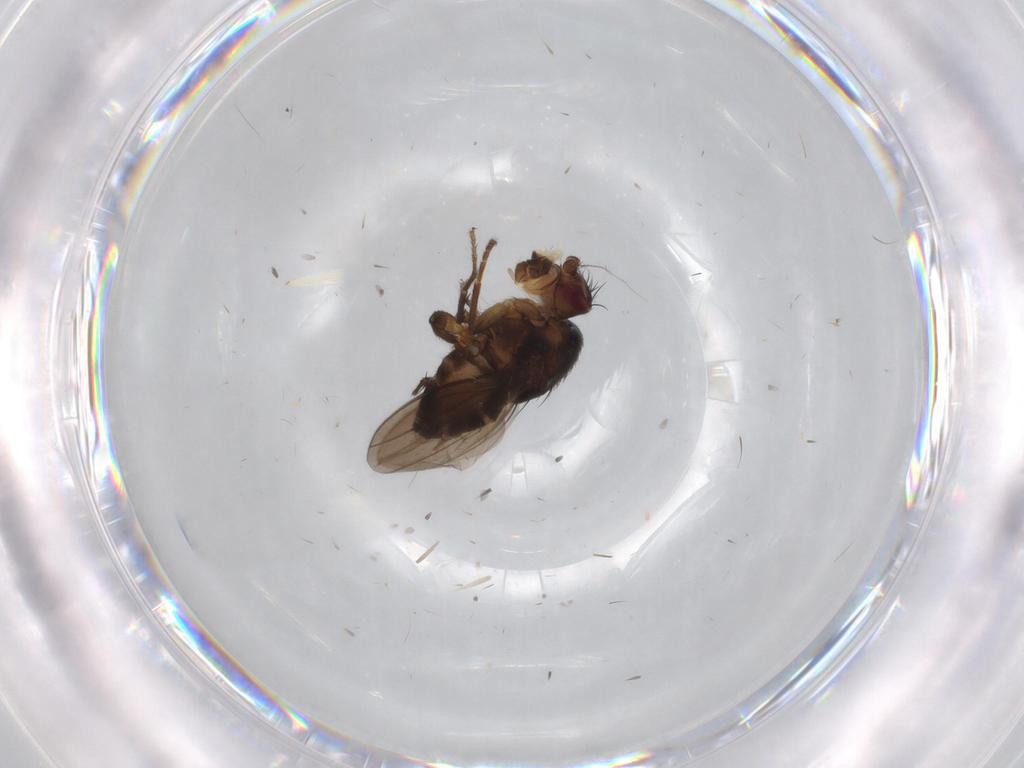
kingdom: Animalia
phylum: Arthropoda
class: Insecta
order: Diptera
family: Sphaeroceridae
